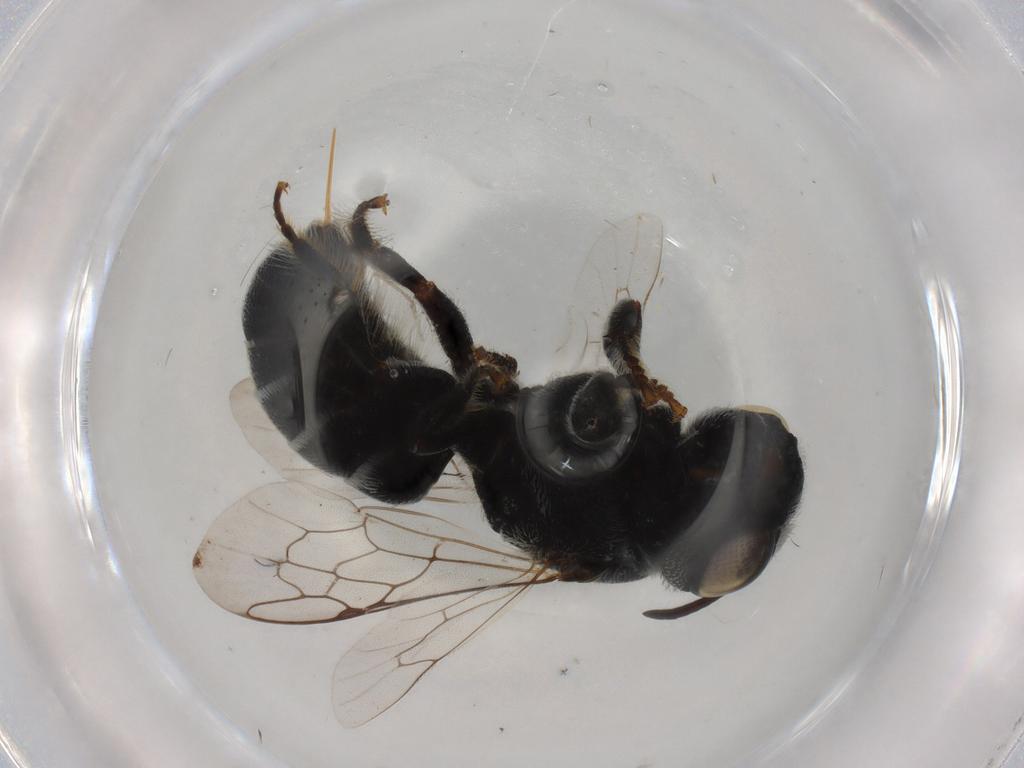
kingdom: Animalia
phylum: Arthropoda
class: Insecta
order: Hymenoptera
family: Megachilidae
